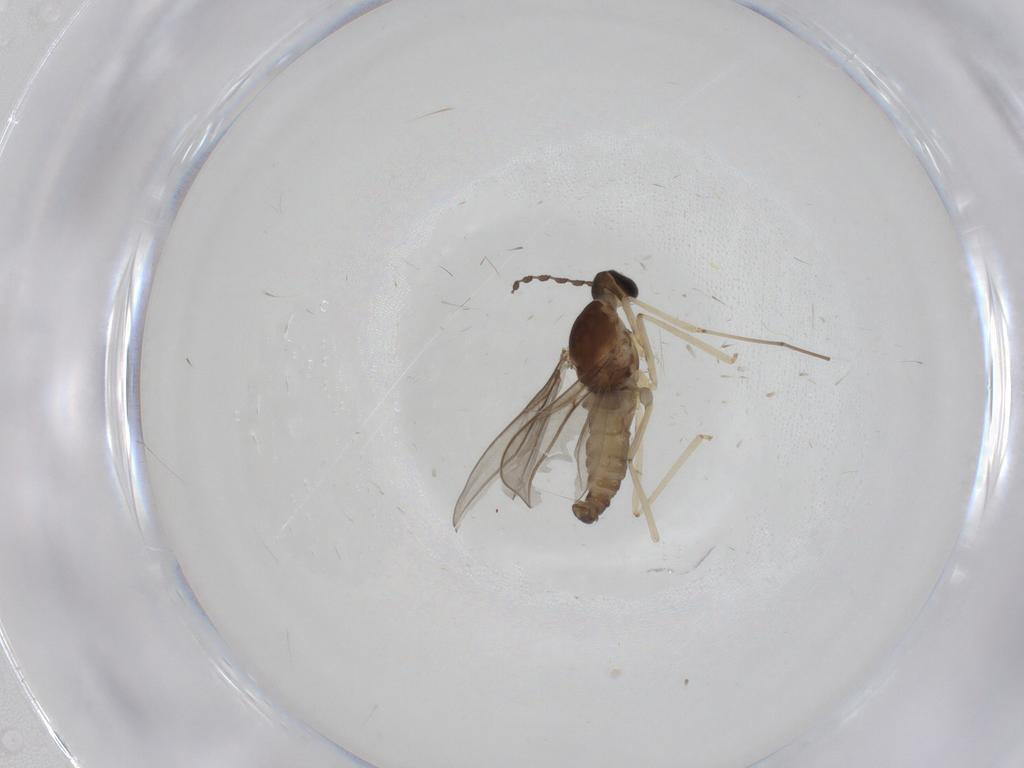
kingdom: Animalia
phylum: Arthropoda
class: Insecta
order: Diptera
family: Cecidomyiidae
